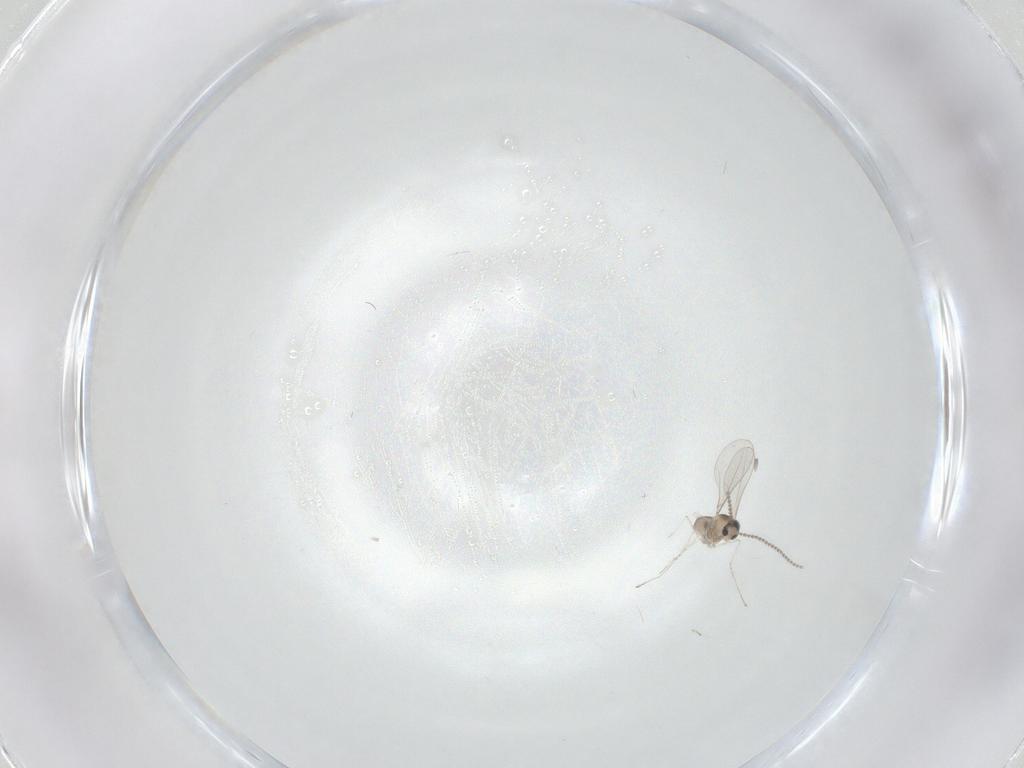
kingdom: Animalia
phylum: Arthropoda
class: Insecta
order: Diptera
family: Cecidomyiidae
